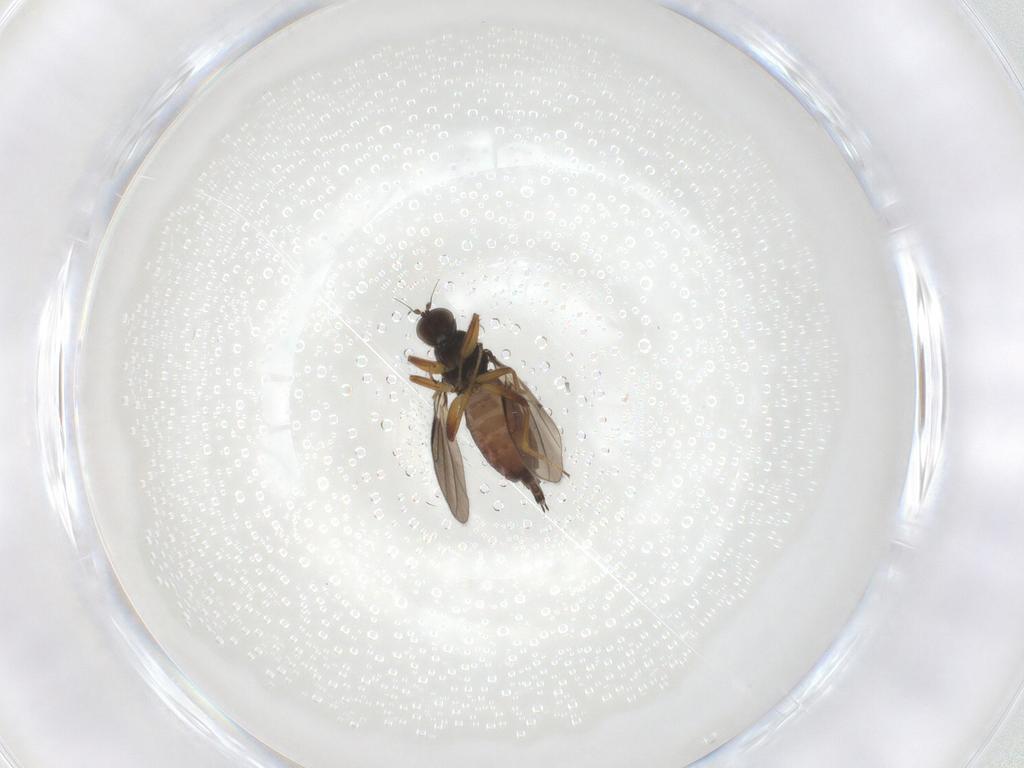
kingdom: Animalia
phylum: Arthropoda
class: Insecta
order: Diptera
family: Hybotidae
